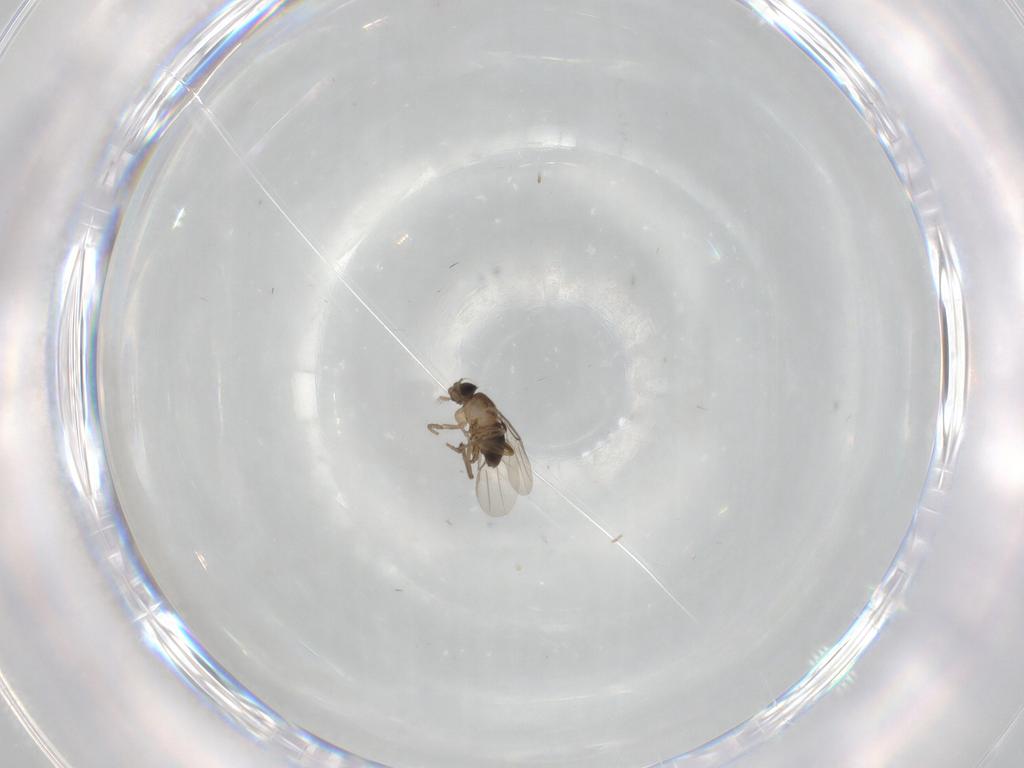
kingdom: Animalia
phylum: Arthropoda
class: Insecta
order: Diptera
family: Phoridae
